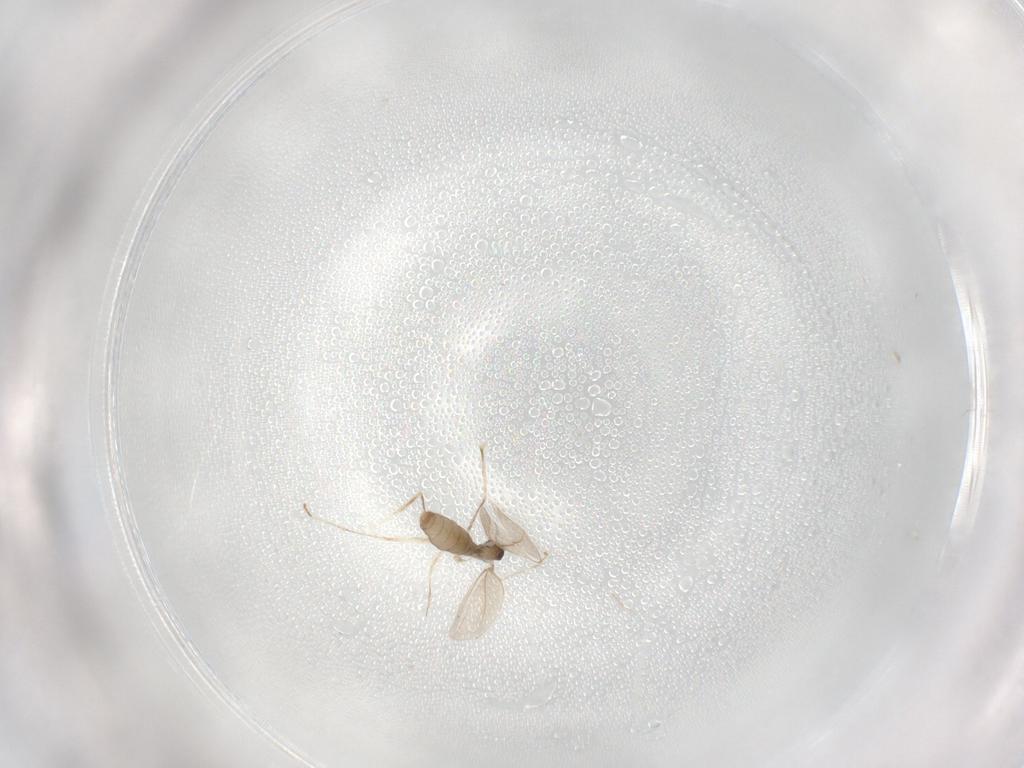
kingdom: Animalia
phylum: Arthropoda
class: Insecta
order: Diptera
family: Cecidomyiidae
